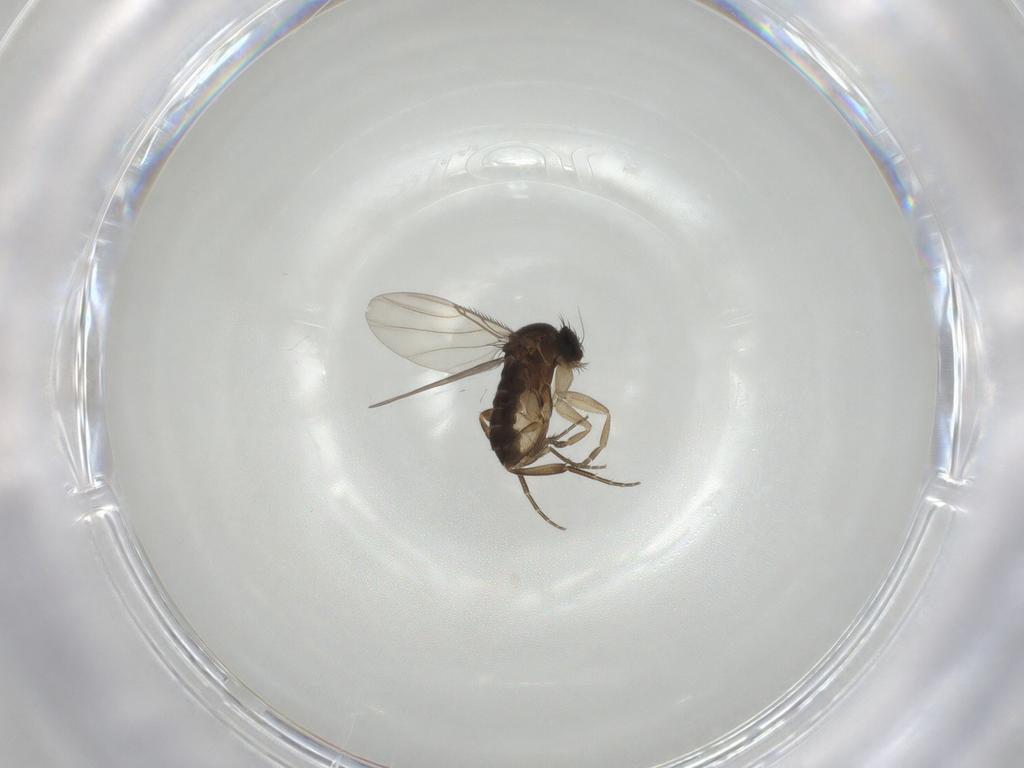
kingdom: Animalia
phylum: Arthropoda
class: Insecta
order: Diptera
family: Phoridae
